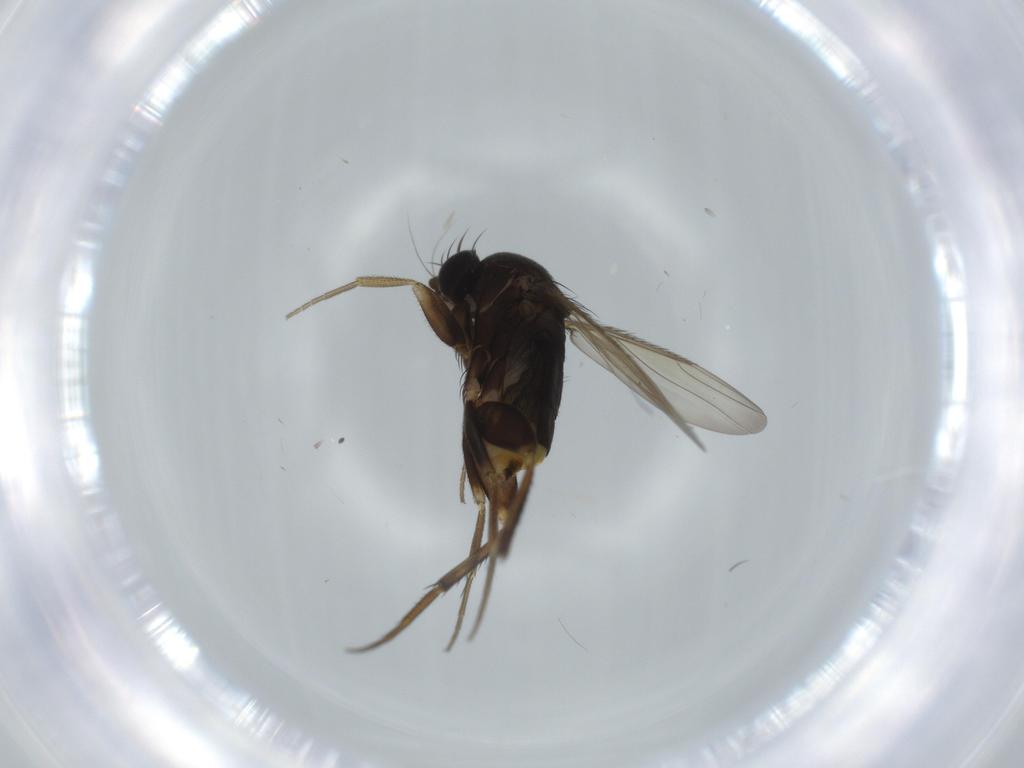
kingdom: Animalia
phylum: Arthropoda
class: Insecta
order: Diptera
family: Phoridae
